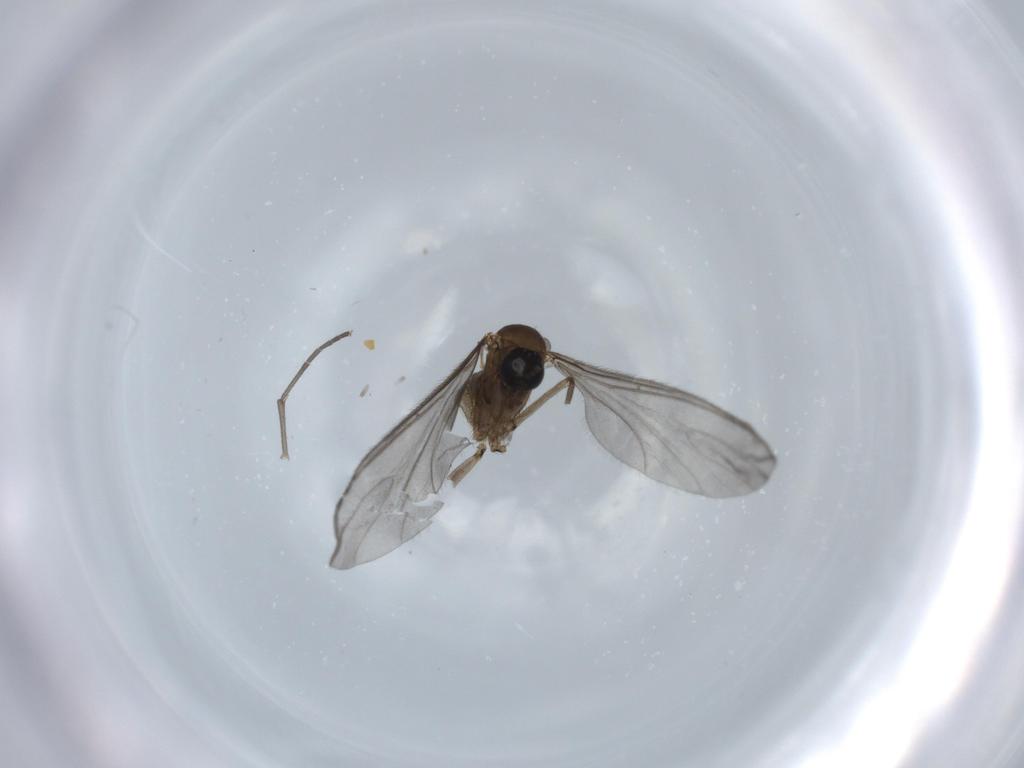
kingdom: Animalia
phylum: Arthropoda
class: Insecta
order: Diptera
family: Sciaridae
